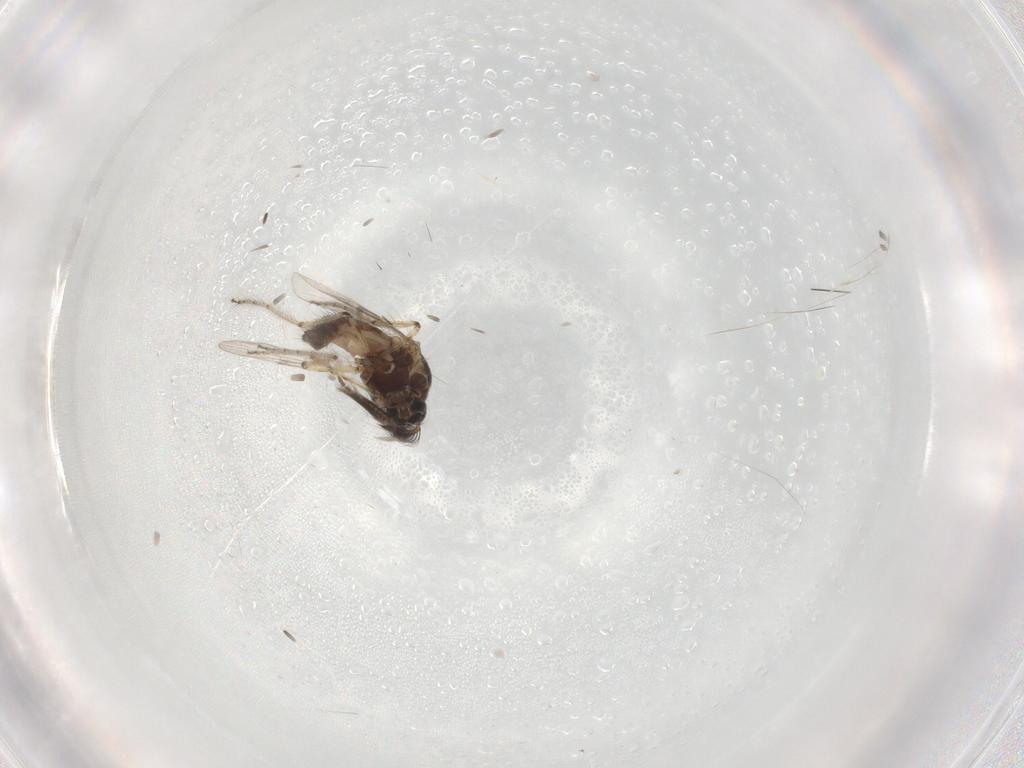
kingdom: Animalia
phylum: Arthropoda
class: Insecta
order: Diptera
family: Ceratopogonidae
